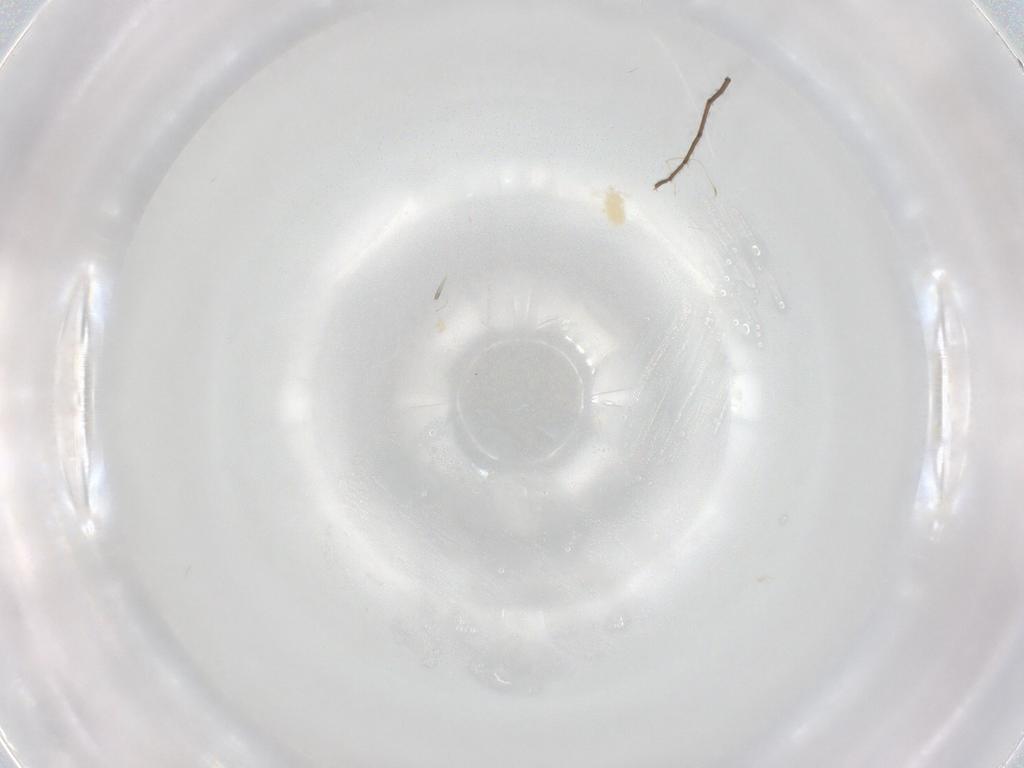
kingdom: Animalia
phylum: Arthropoda
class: Arachnida
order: Trombidiformes
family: Eupodidae
